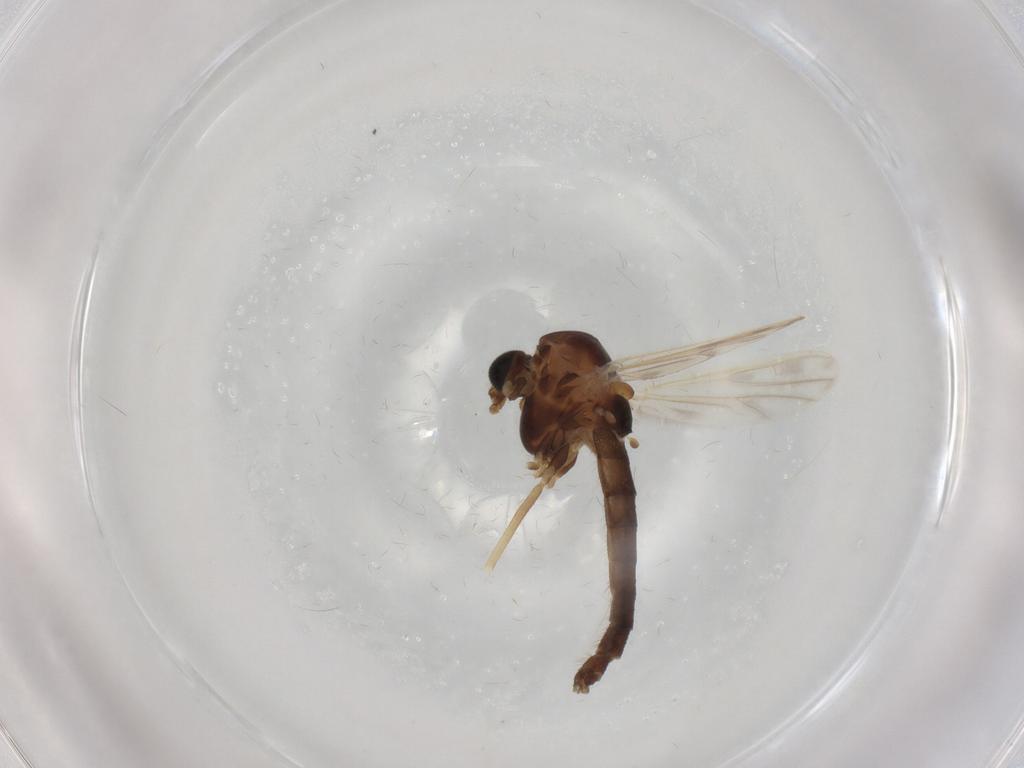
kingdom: Animalia
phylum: Arthropoda
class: Insecta
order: Diptera
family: Chironomidae
